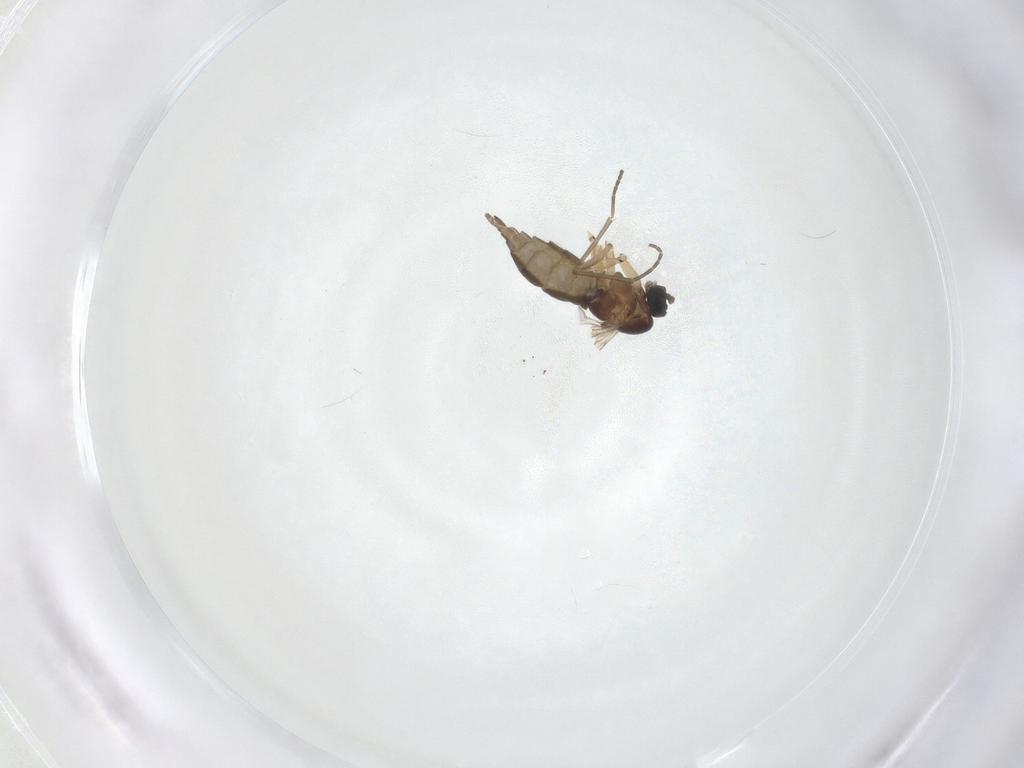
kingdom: Animalia
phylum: Arthropoda
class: Insecta
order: Diptera
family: Sciaridae
